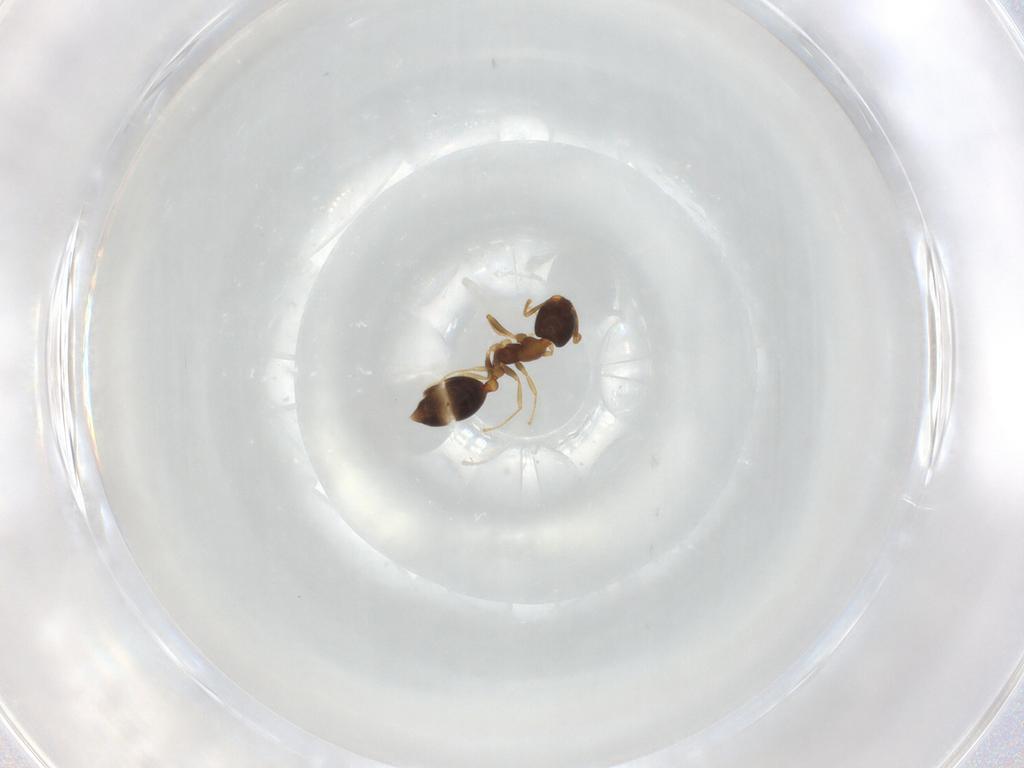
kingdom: Animalia
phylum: Arthropoda
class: Insecta
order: Hymenoptera
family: Formicidae
